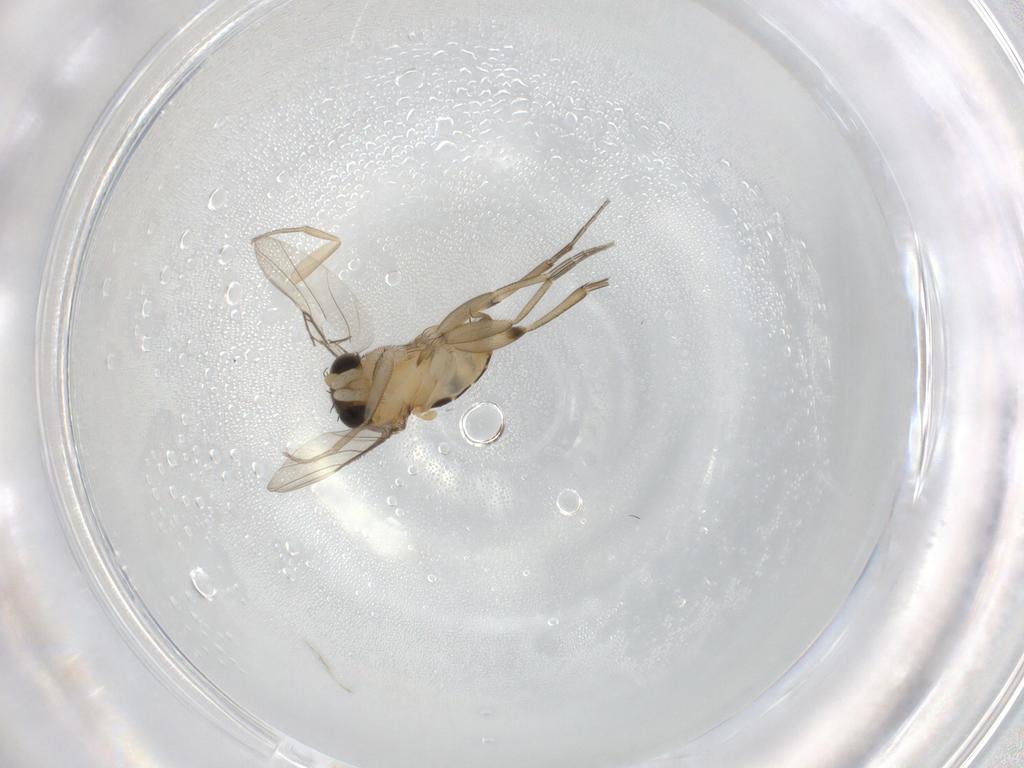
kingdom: Animalia
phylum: Arthropoda
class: Insecta
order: Diptera
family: Phoridae
